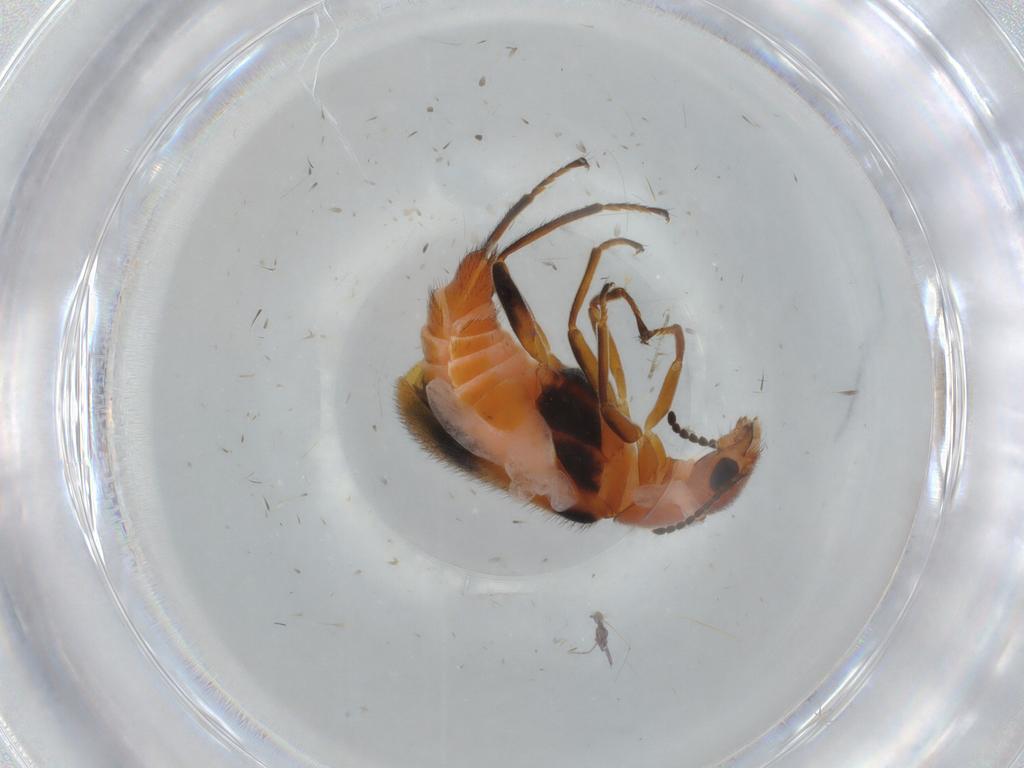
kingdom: Animalia
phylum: Arthropoda
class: Insecta
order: Coleoptera
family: Melyridae
